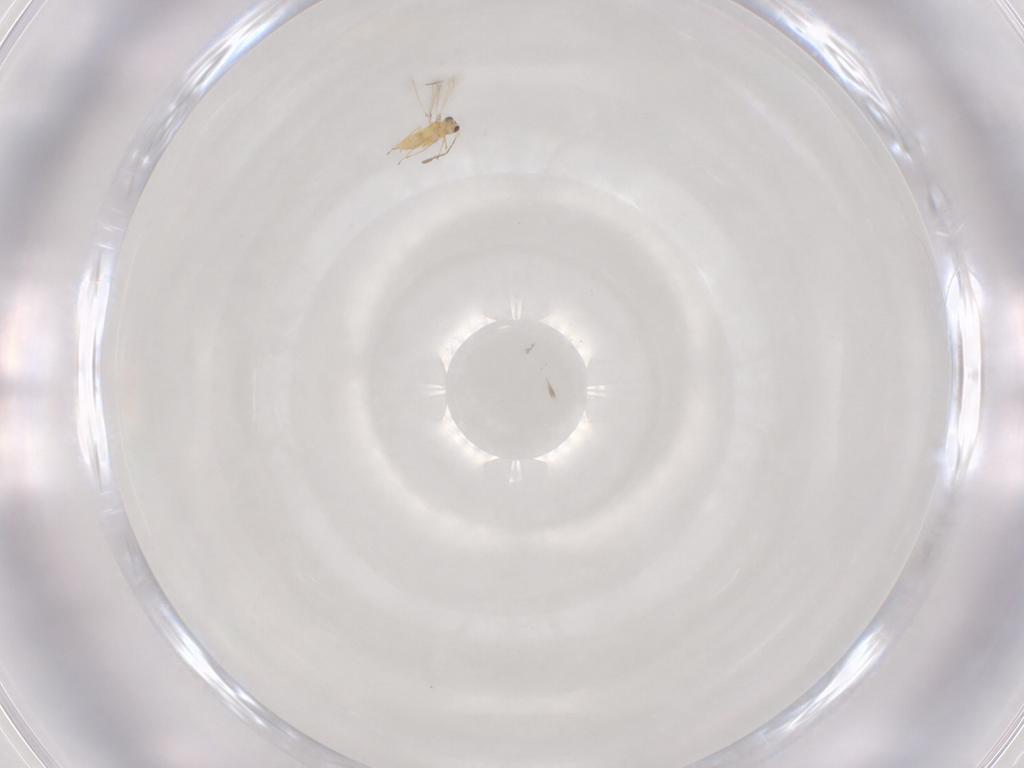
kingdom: Animalia
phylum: Arthropoda
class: Insecta
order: Hymenoptera
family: Mymaridae
